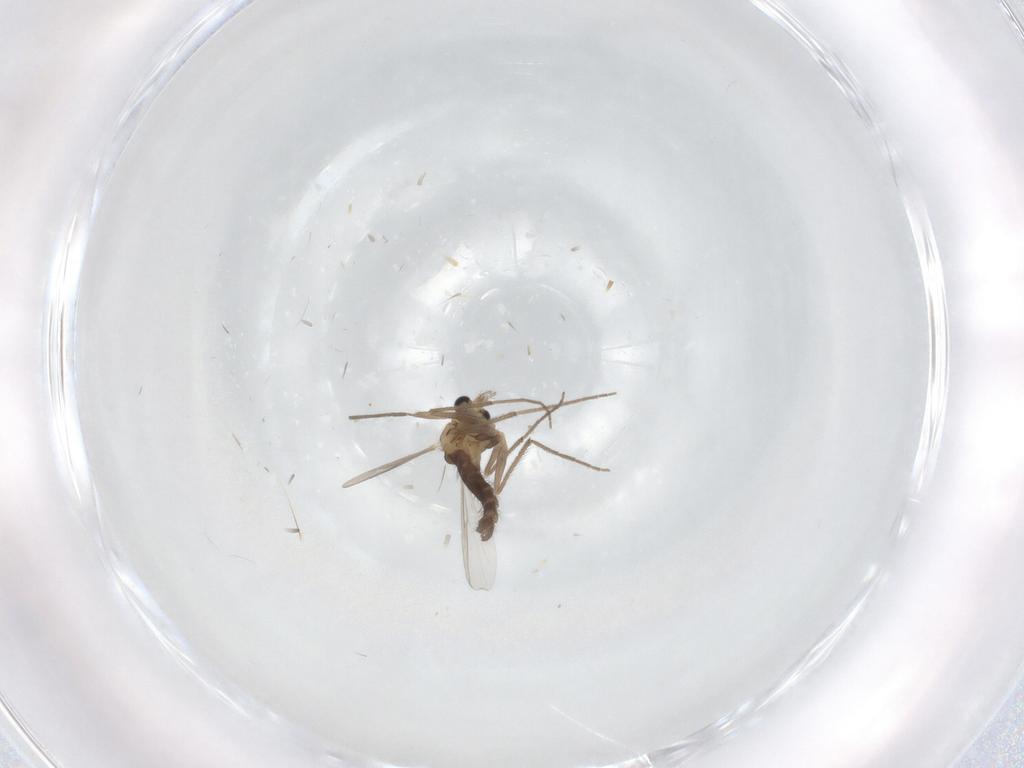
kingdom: Animalia
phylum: Arthropoda
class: Insecta
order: Diptera
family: Chironomidae
